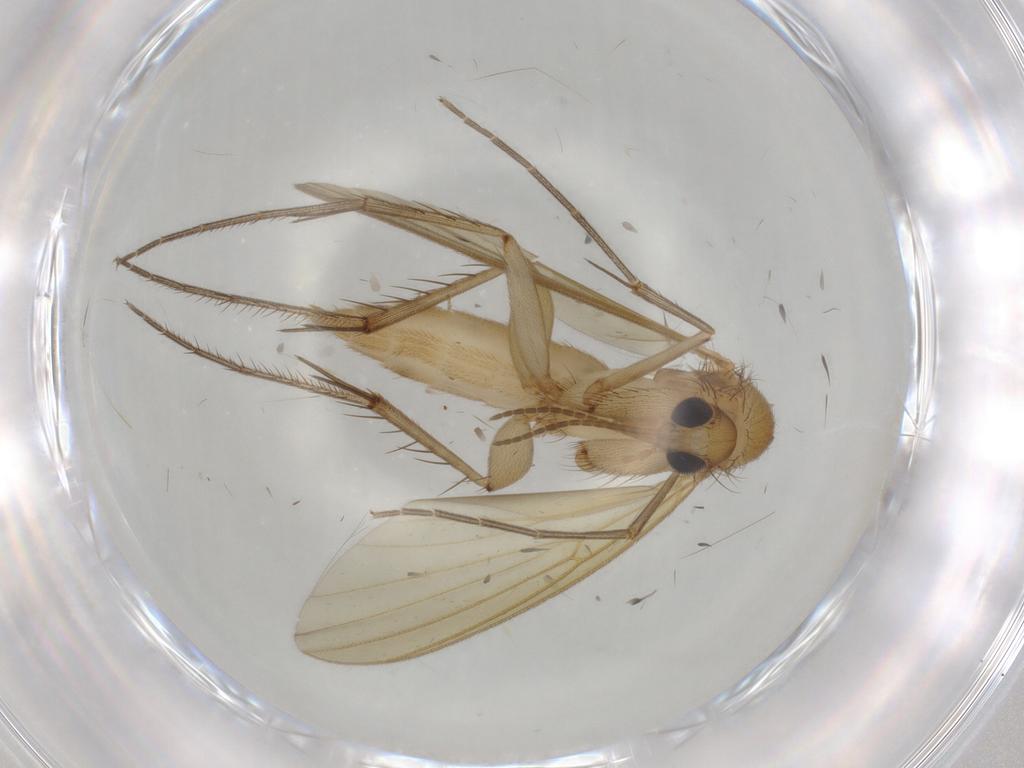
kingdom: Animalia
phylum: Arthropoda
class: Insecta
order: Diptera
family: Mycetophilidae
